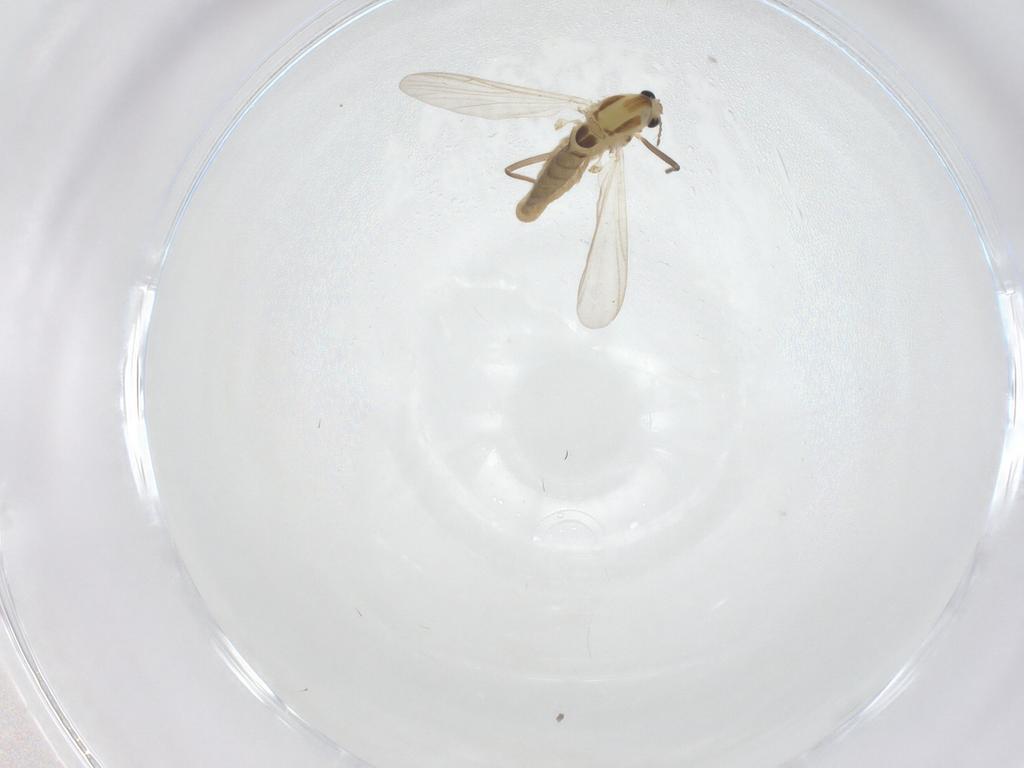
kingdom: Animalia
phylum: Arthropoda
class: Insecta
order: Diptera
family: Chironomidae
